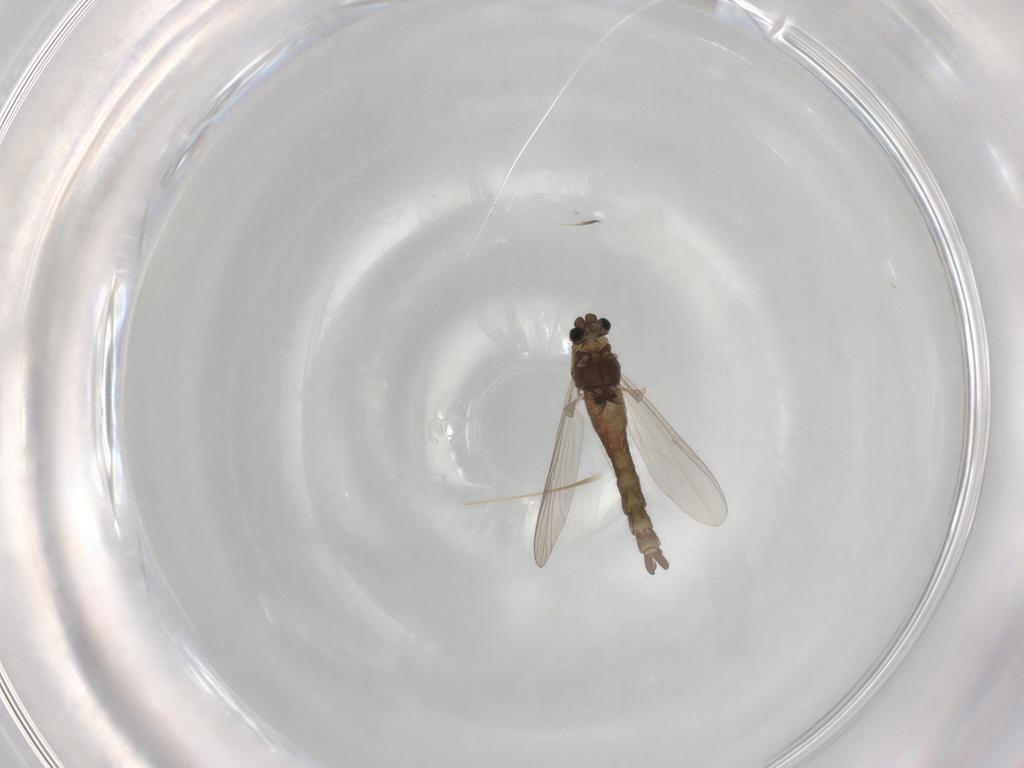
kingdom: Animalia
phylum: Arthropoda
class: Insecta
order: Diptera
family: Chironomidae
